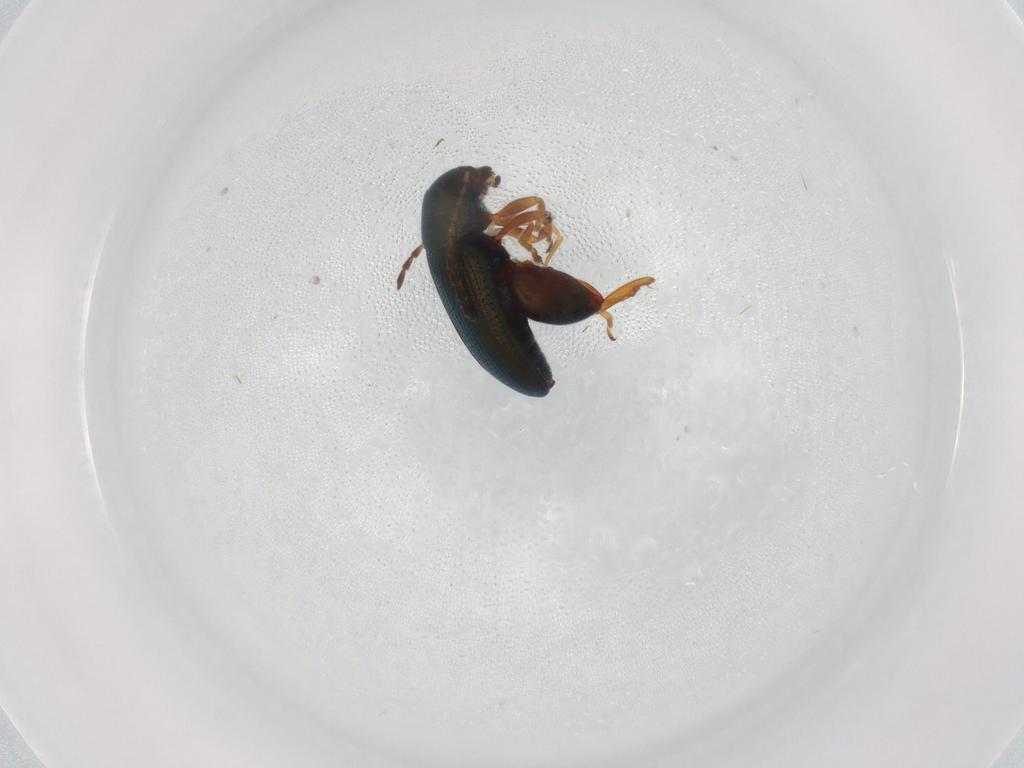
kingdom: Animalia
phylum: Arthropoda
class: Insecta
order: Coleoptera
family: Chrysomelidae
